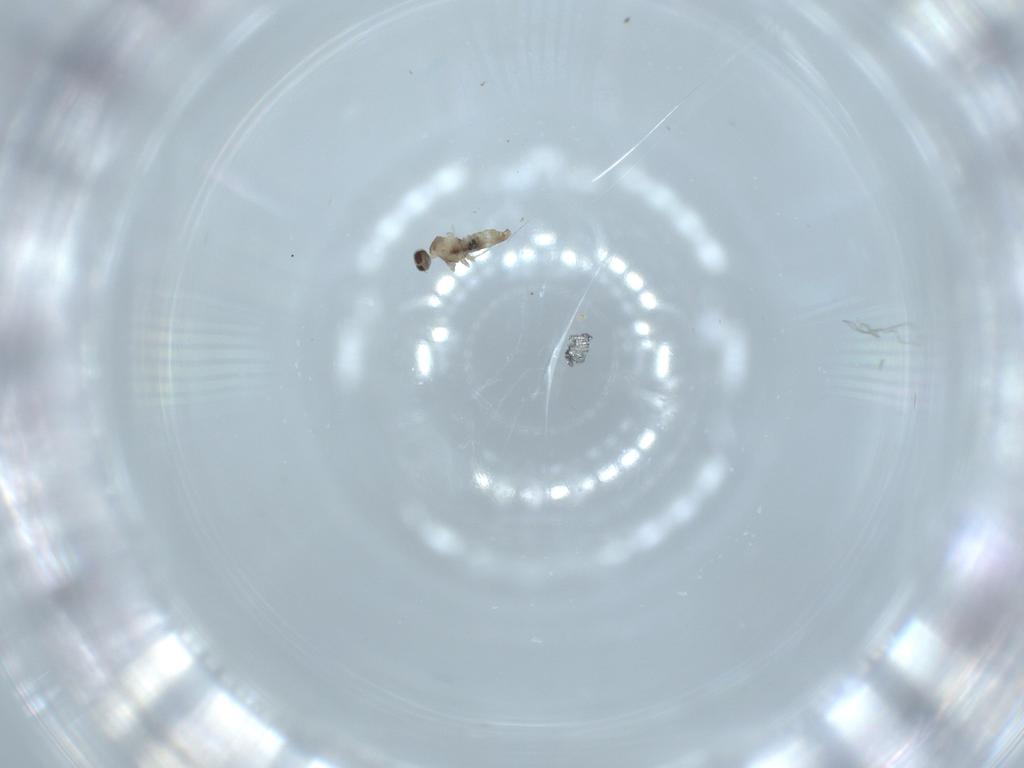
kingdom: Animalia
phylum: Arthropoda
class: Insecta
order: Diptera
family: Cecidomyiidae
